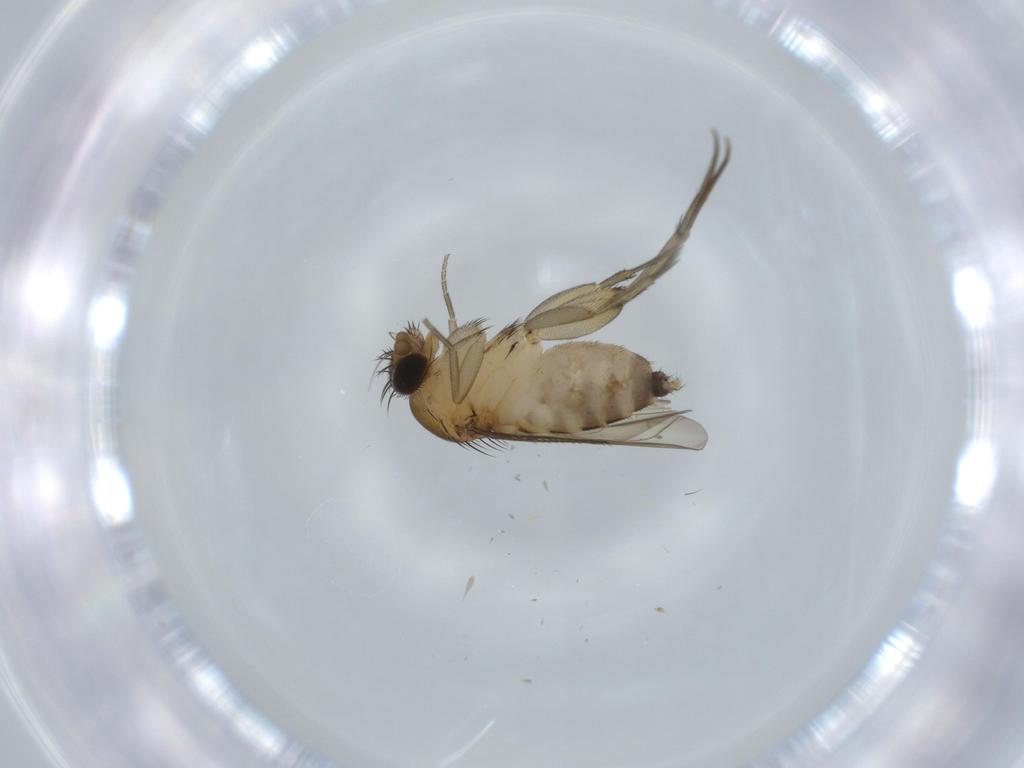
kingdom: Animalia
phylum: Arthropoda
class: Insecta
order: Diptera
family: Phoridae
